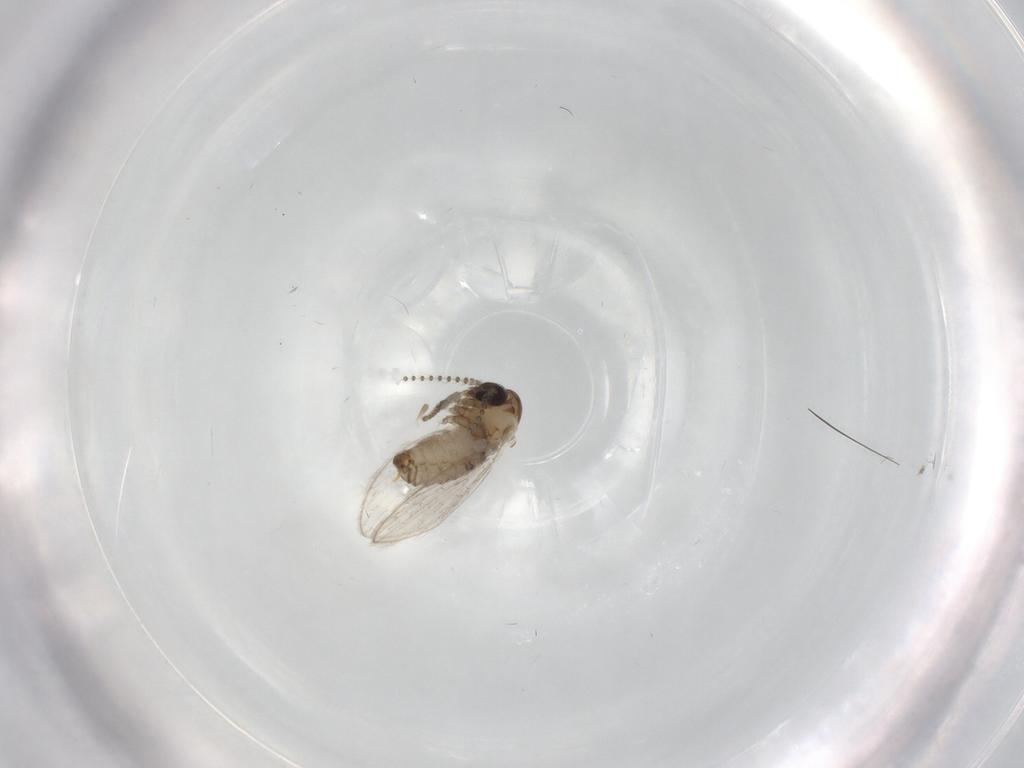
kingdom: Animalia
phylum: Arthropoda
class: Insecta
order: Diptera
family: Psychodidae
